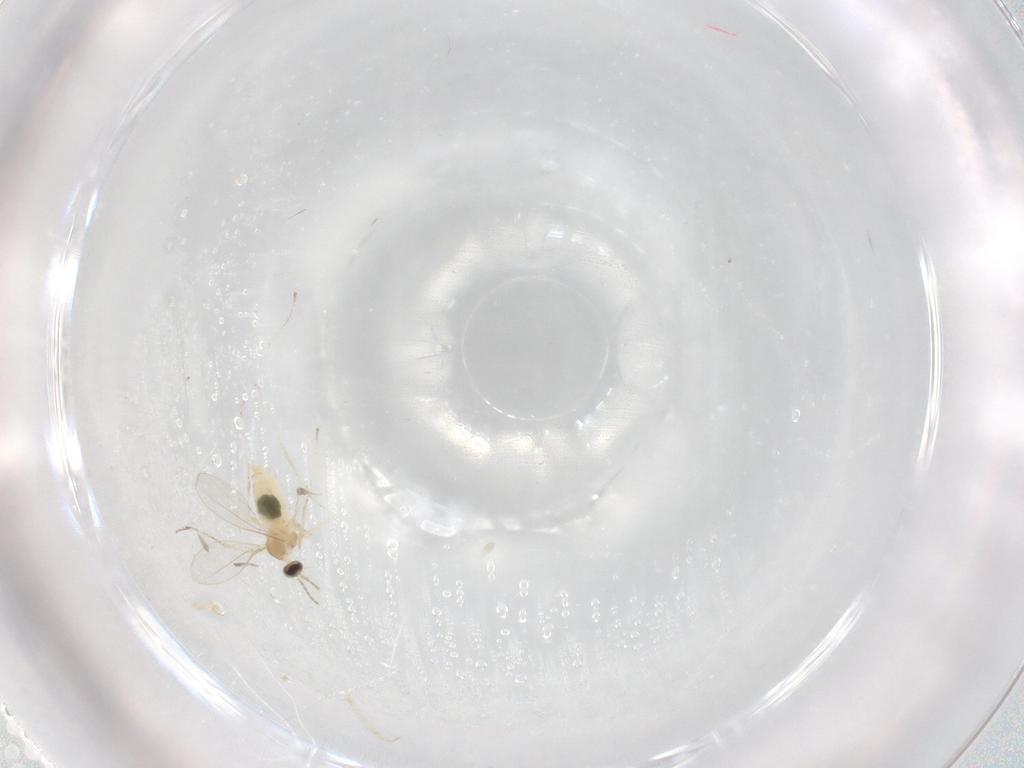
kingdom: Animalia
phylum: Arthropoda
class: Insecta
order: Diptera
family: Cecidomyiidae
